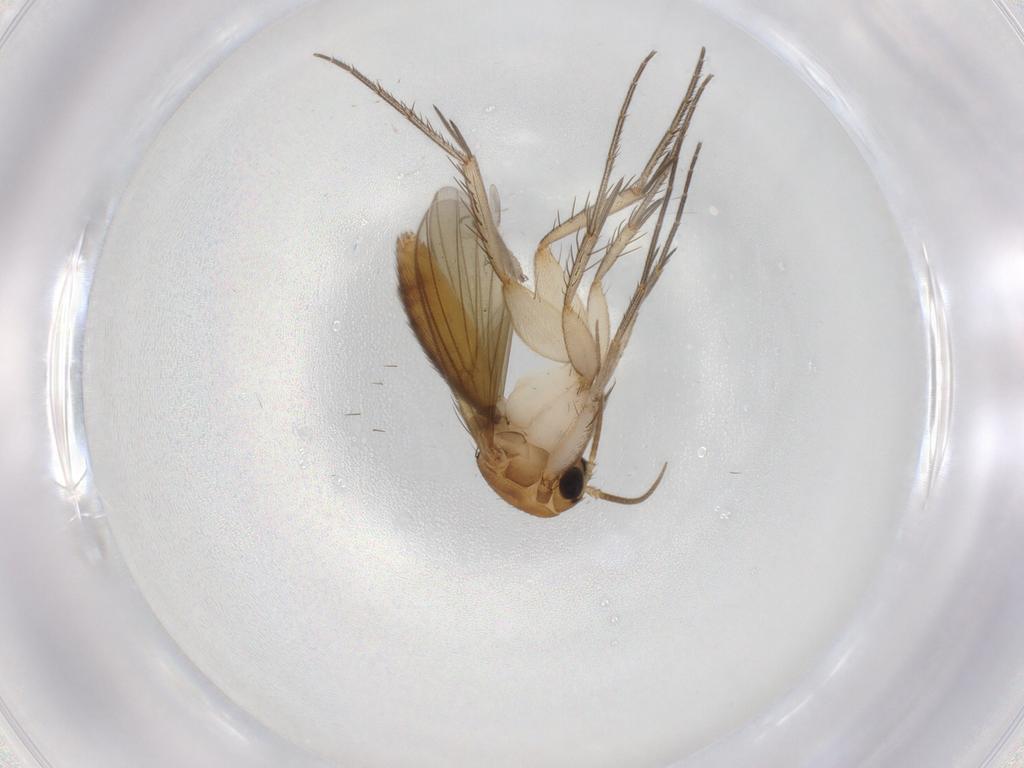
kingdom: Animalia
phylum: Arthropoda
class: Insecta
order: Diptera
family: Cecidomyiidae
